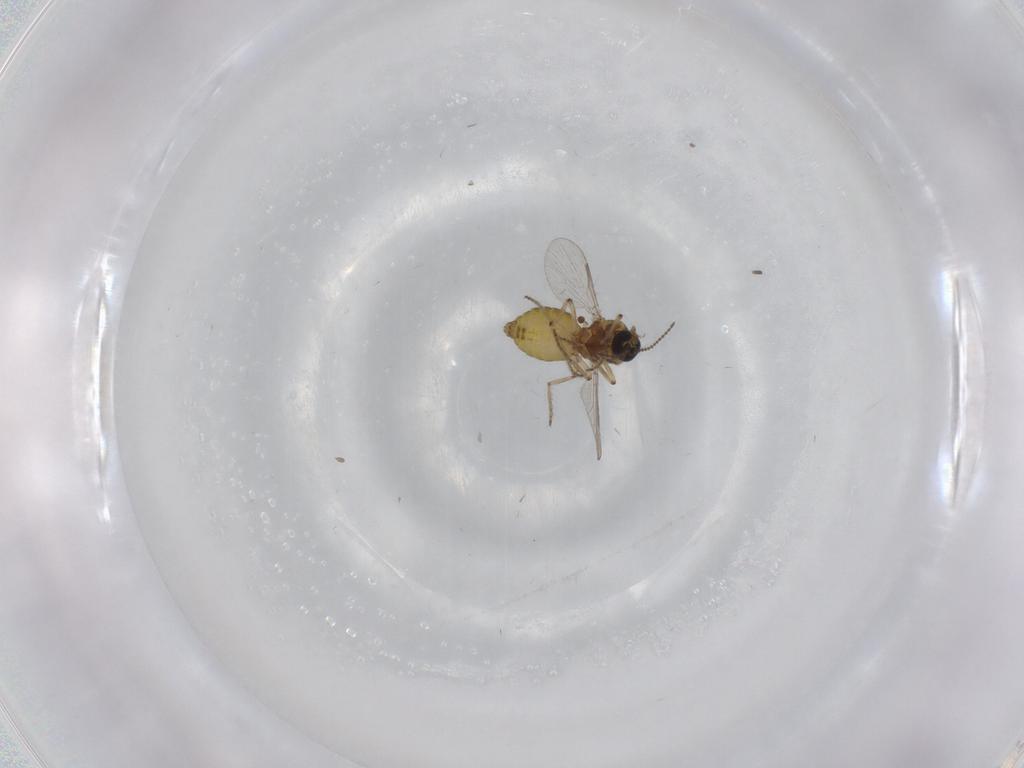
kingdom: Animalia
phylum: Arthropoda
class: Insecta
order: Diptera
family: Ceratopogonidae
